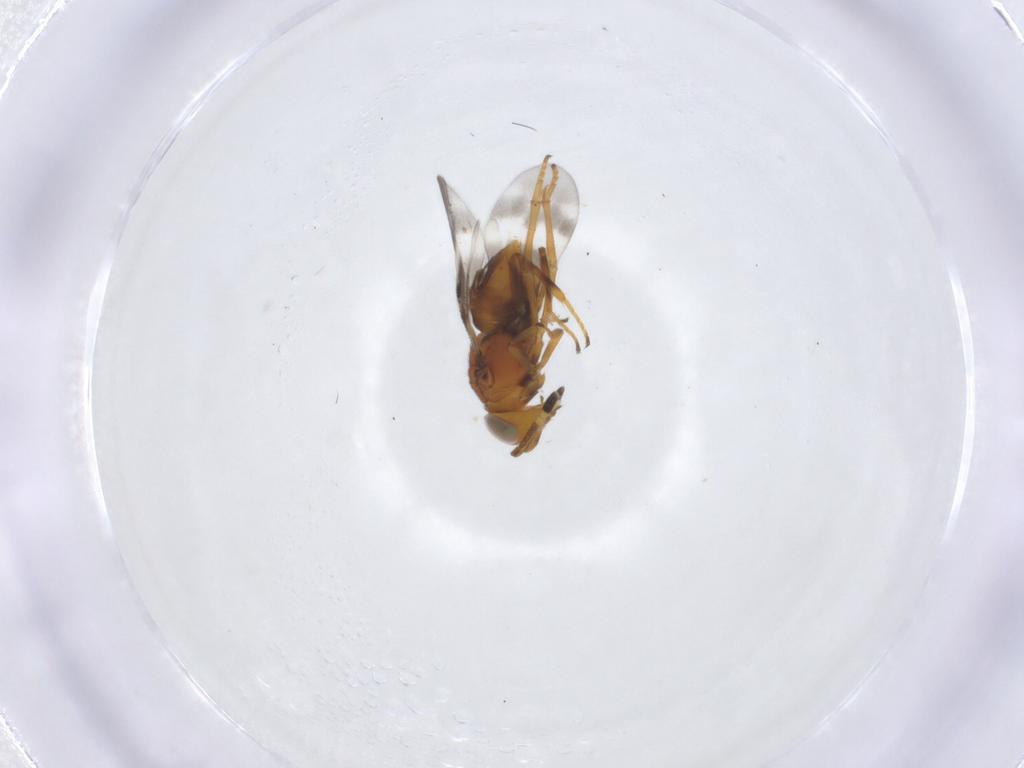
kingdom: Animalia
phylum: Arthropoda
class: Insecta
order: Hymenoptera
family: Formicidae
